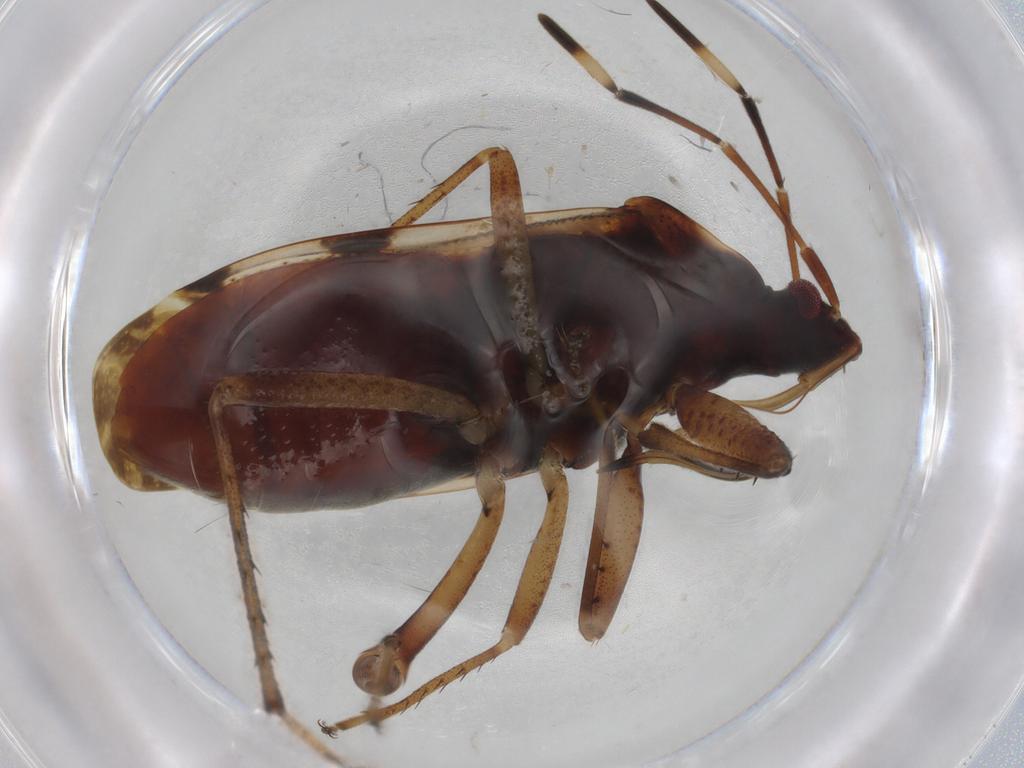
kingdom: Animalia
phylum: Arthropoda
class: Insecta
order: Hemiptera
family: Rhyparochromidae
